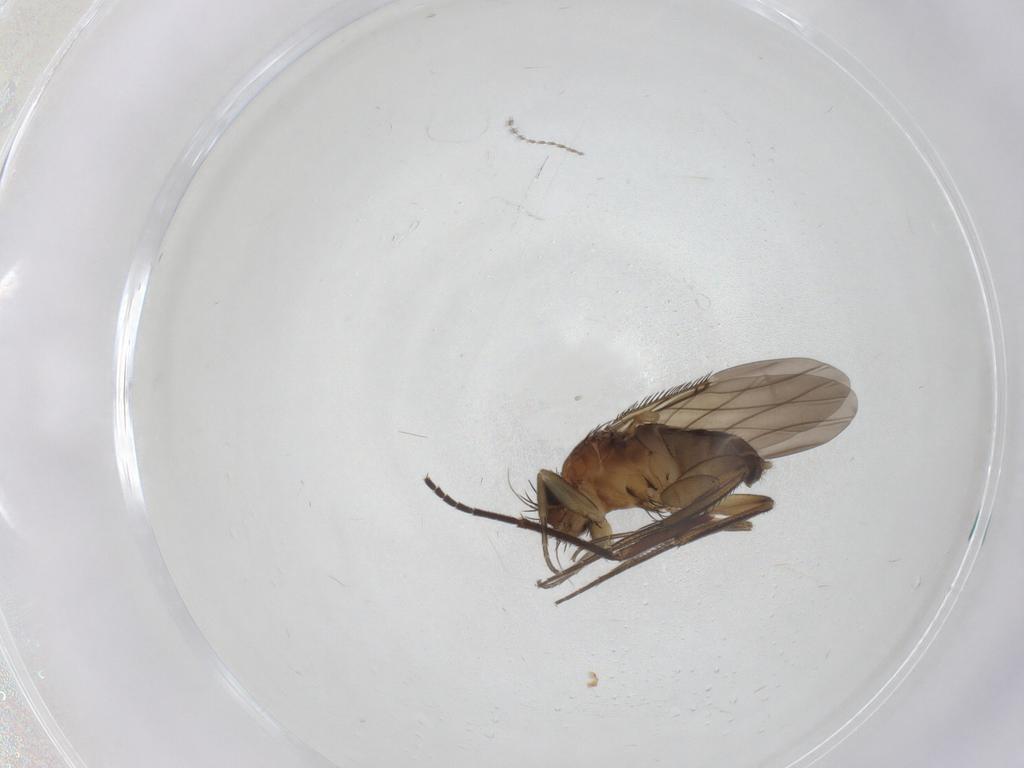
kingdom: Animalia
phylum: Arthropoda
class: Insecta
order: Diptera
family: Phoridae
